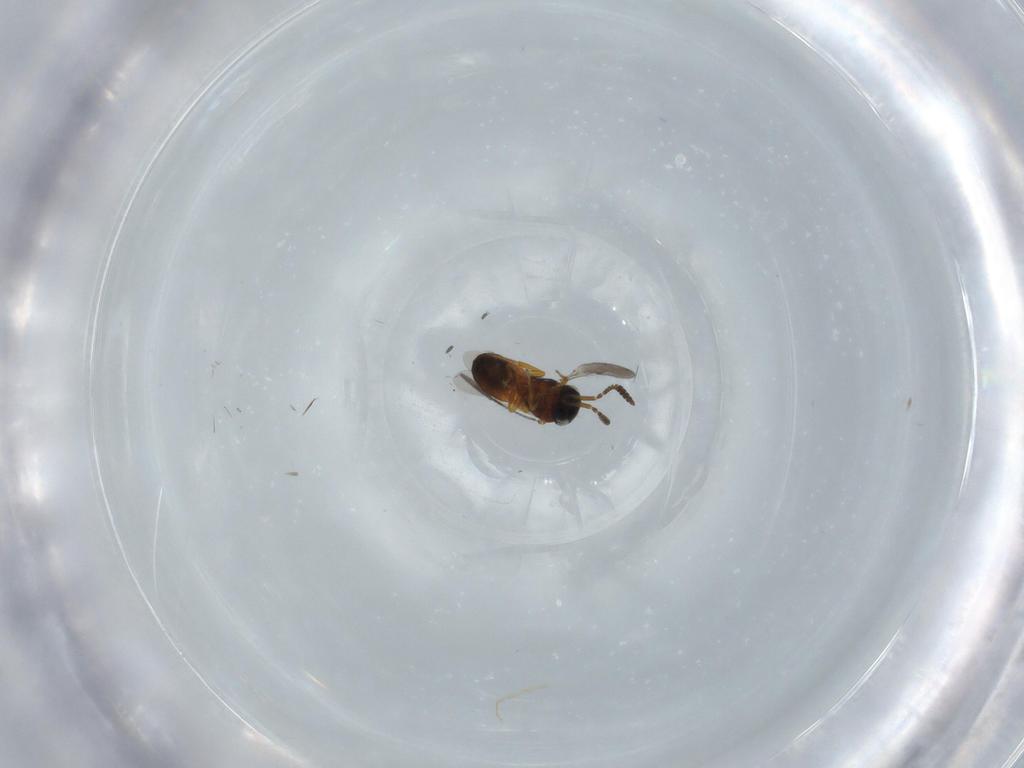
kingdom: Animalia
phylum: Arthropoda
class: Insecta
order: Hymenoptera
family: Scelionidae
